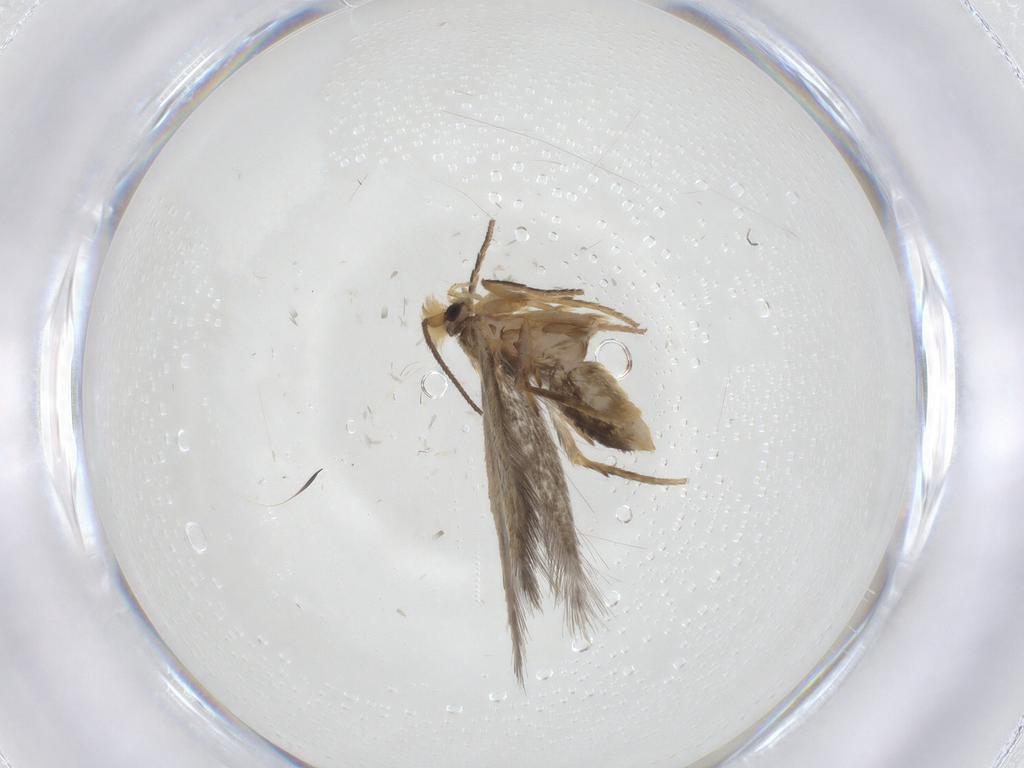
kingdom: Animalia
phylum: Arthropoda
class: Insecta
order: Lepidoptera
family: Nepticulidae
